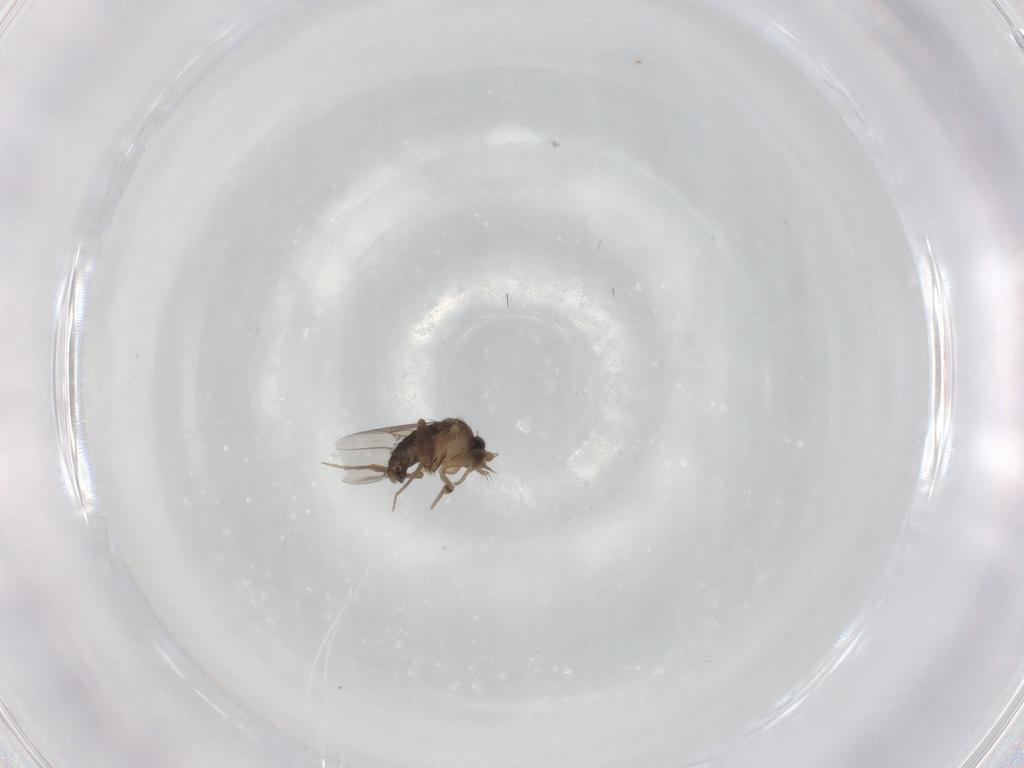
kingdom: Animalia
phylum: Arthropoda
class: Insecta
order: Diptera
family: Phoridae
